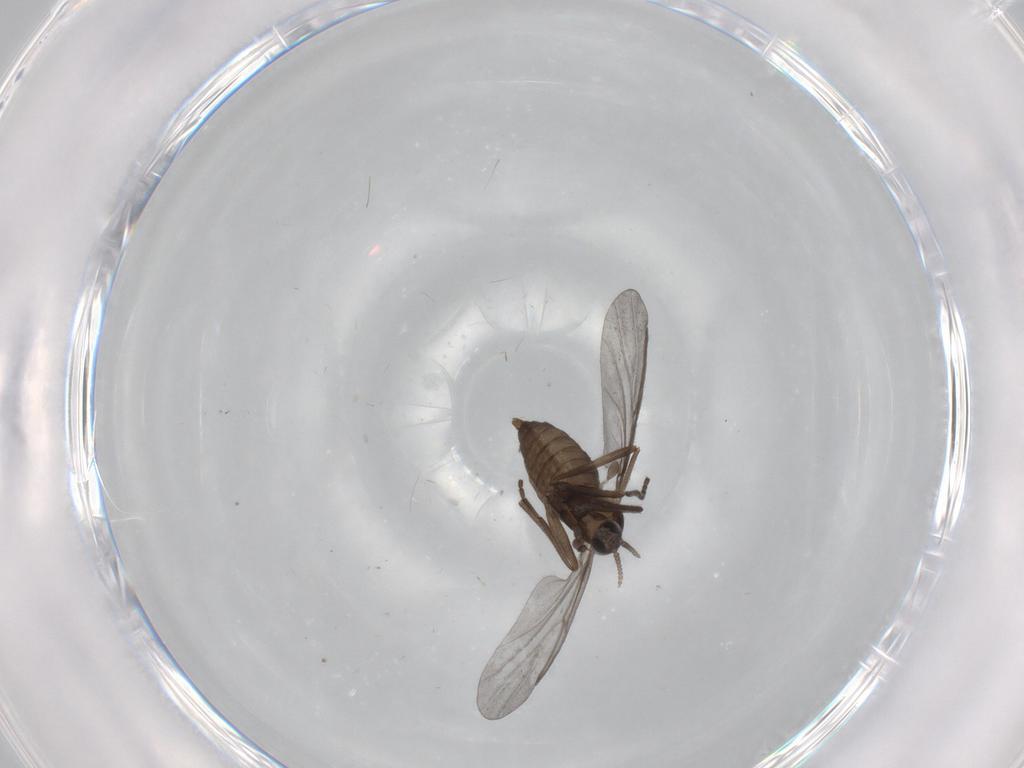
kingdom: Animalia
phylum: Arthropoda
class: Insecta
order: Diptera
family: Cecidomyiidae
